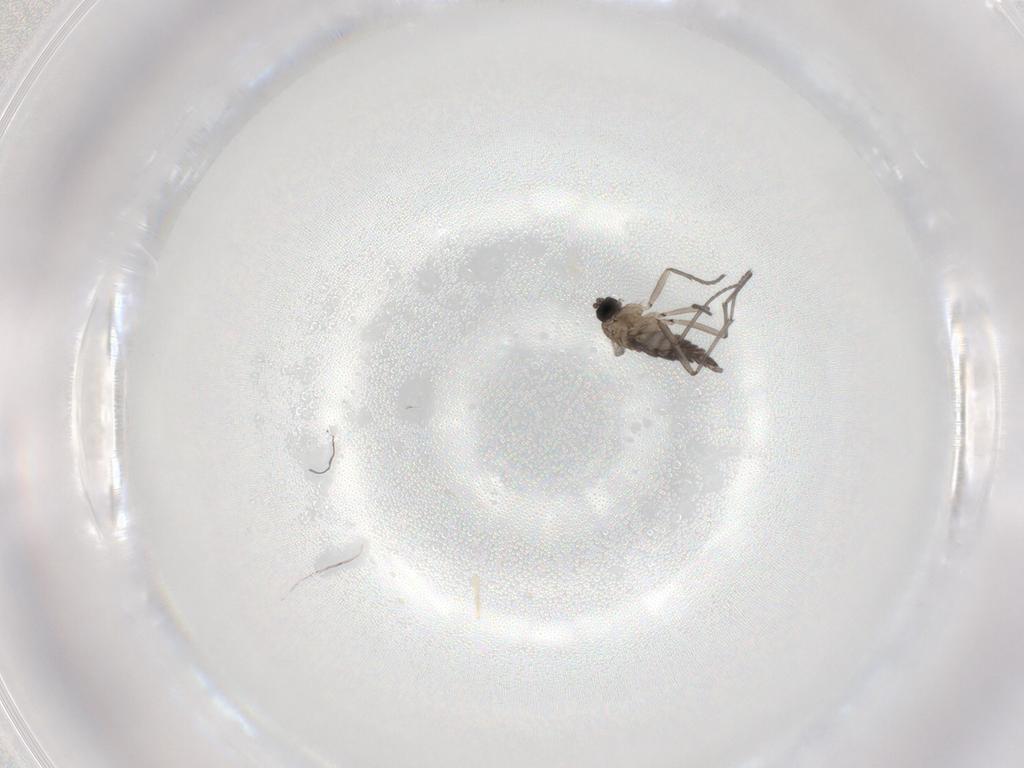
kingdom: Animalia
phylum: Arthropoda
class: Insecta
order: Diptera
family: Sciaridae
